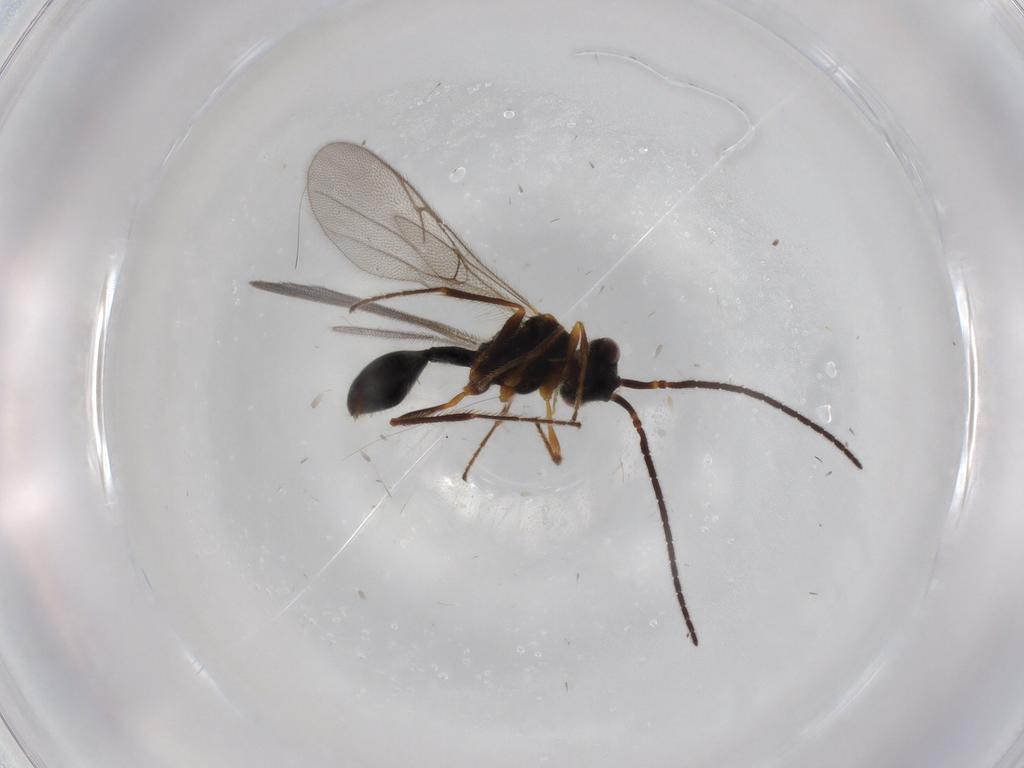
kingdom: Animalia
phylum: Arthropoda
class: Insecta
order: Hymenoptera
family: Diapriidae
